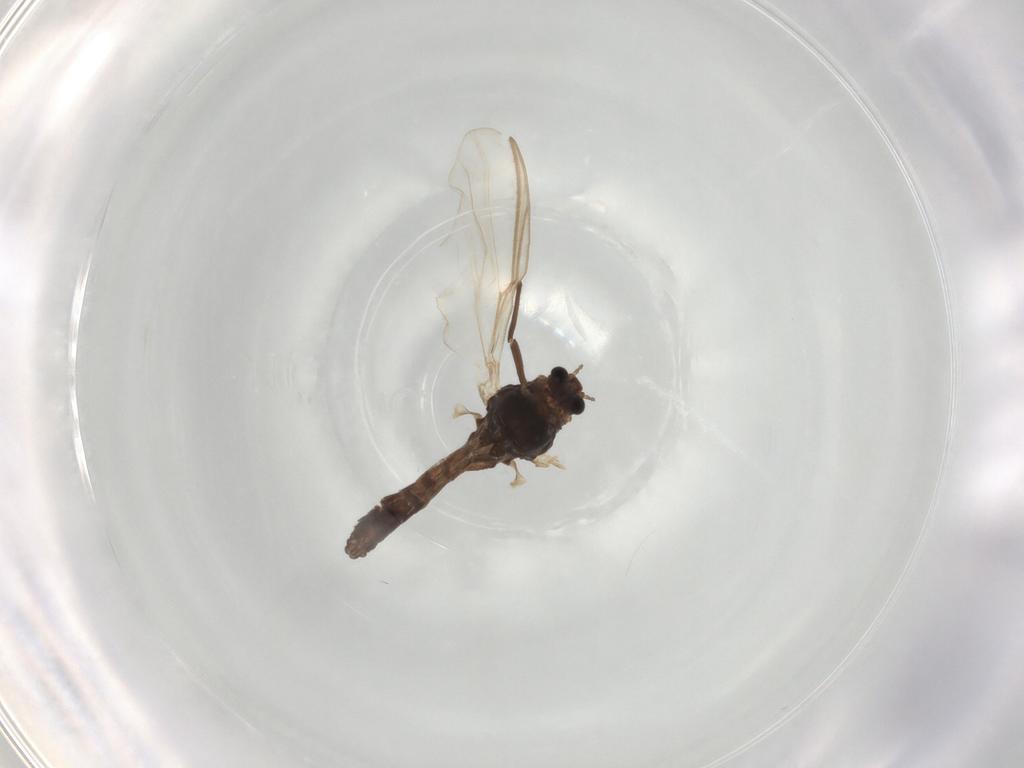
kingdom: Animalia
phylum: Arthropoda
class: Insecta
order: Diptera
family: Chironomidae
